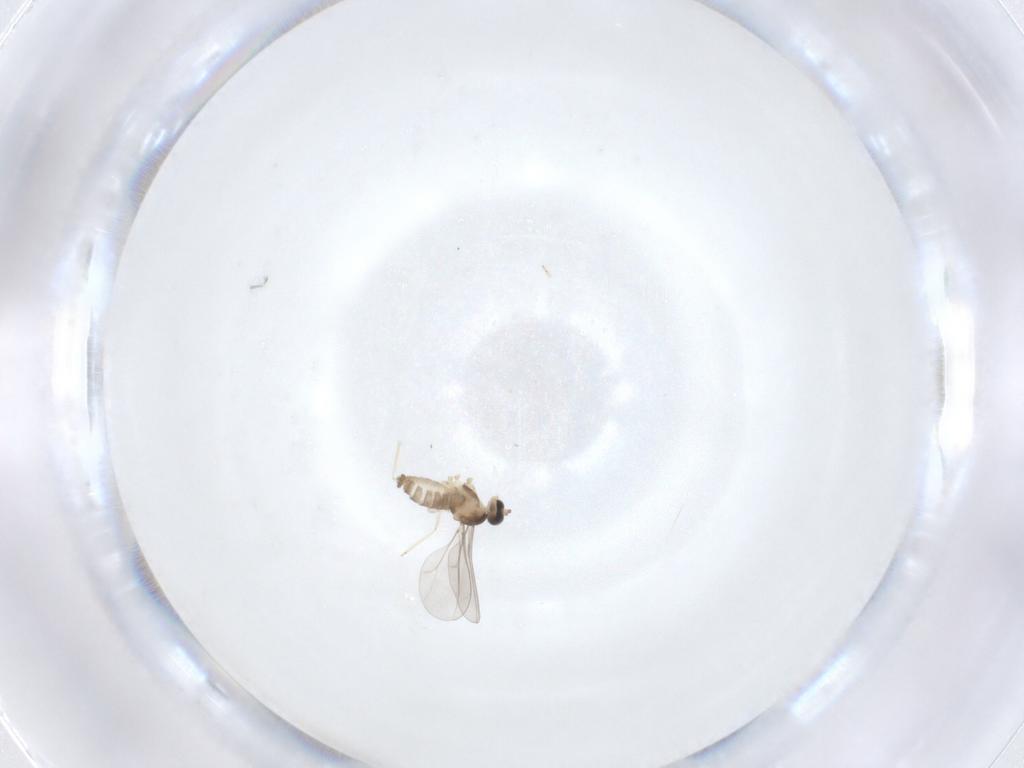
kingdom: Animalia
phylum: Arthropoda
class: Insecta
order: Diptera
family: Cecidomyiidae
